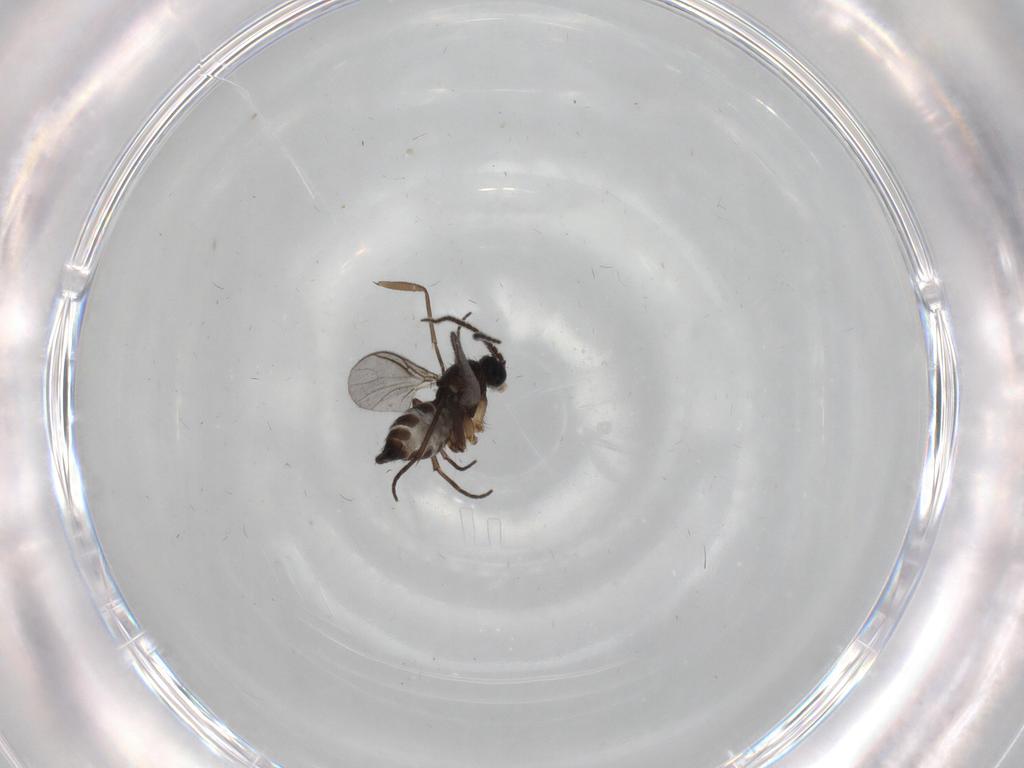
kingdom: Animalia
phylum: Arthropoda
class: Insecta
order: Diptera
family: Sciaridae
